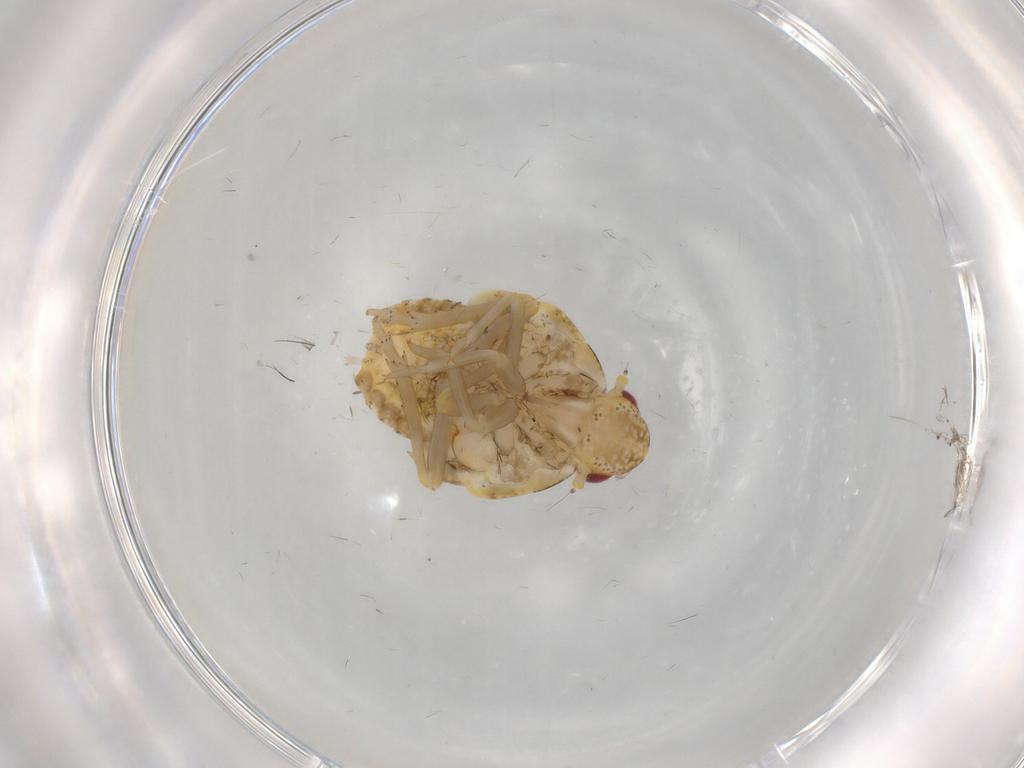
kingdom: Animalia
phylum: Arthropoda
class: Insecta
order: Hemiptera
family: Flatidae
